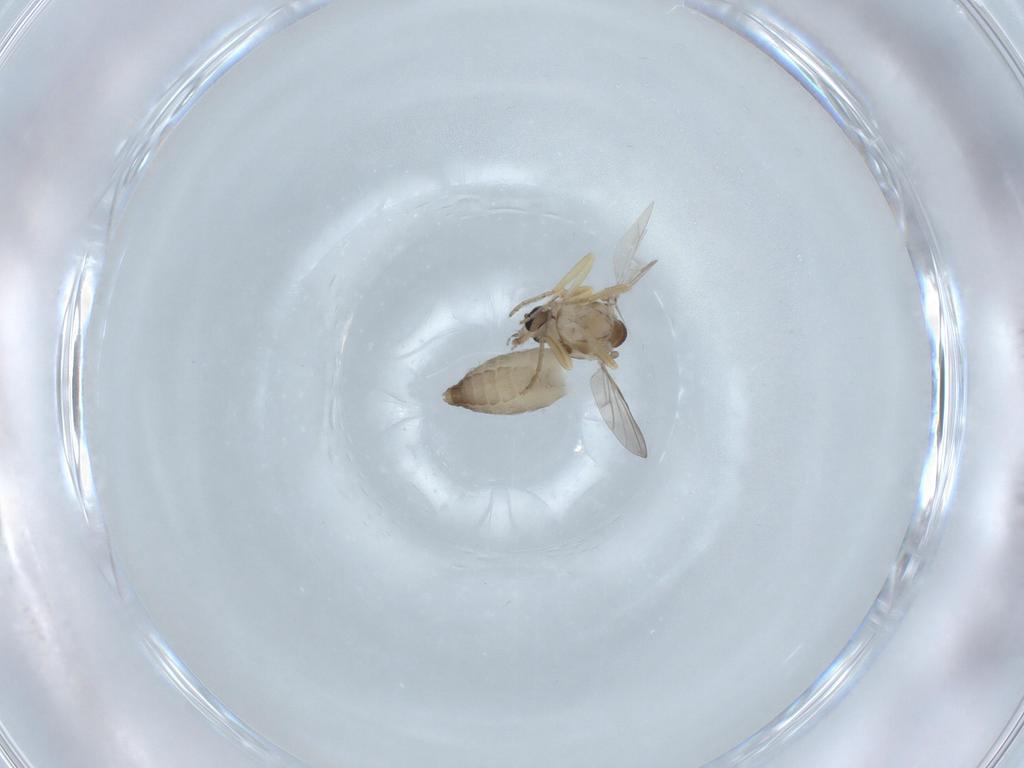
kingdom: Animalia
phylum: Arthropoda
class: Insecta
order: Diptera
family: Ceratopogonidae
